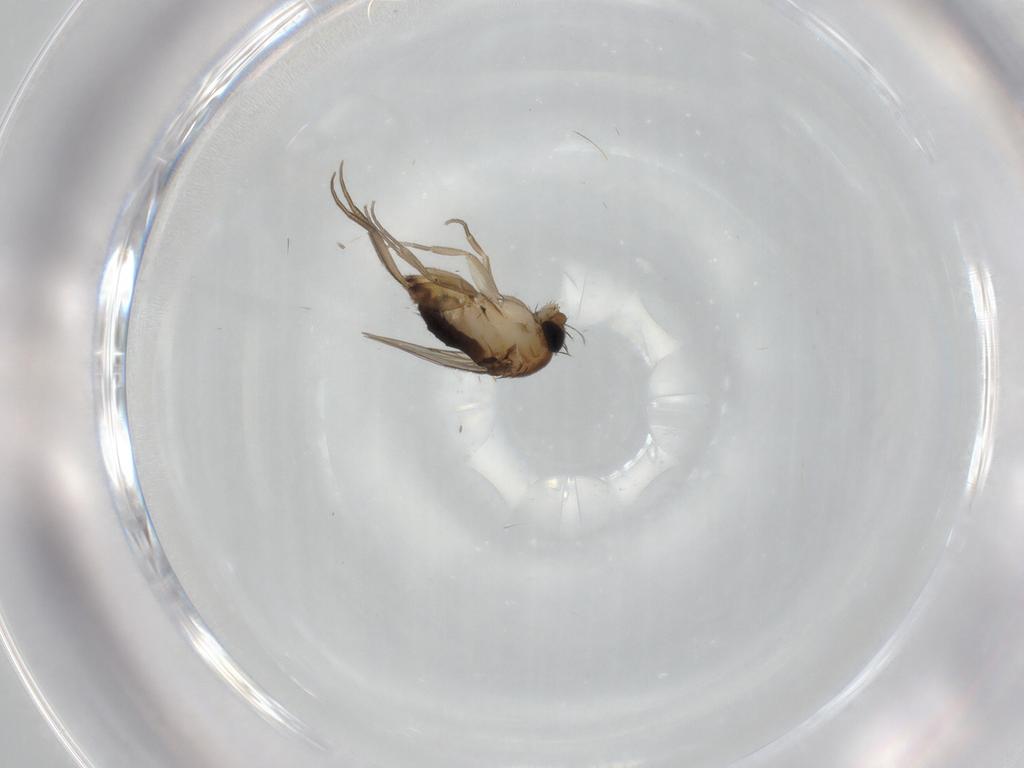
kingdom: Animalia
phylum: Arthropoda
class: Insecta
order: Diptera
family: Phoridae
